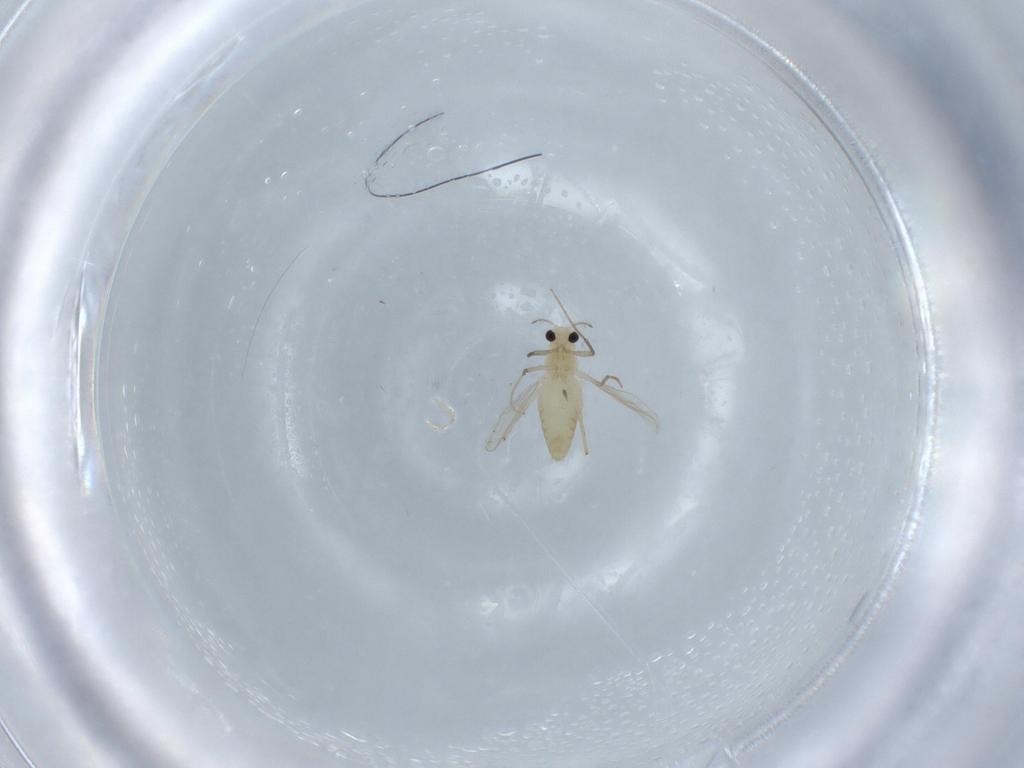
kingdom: Animalia
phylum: Arthropoda
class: Insecta
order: Diptera
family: Chironomidae
